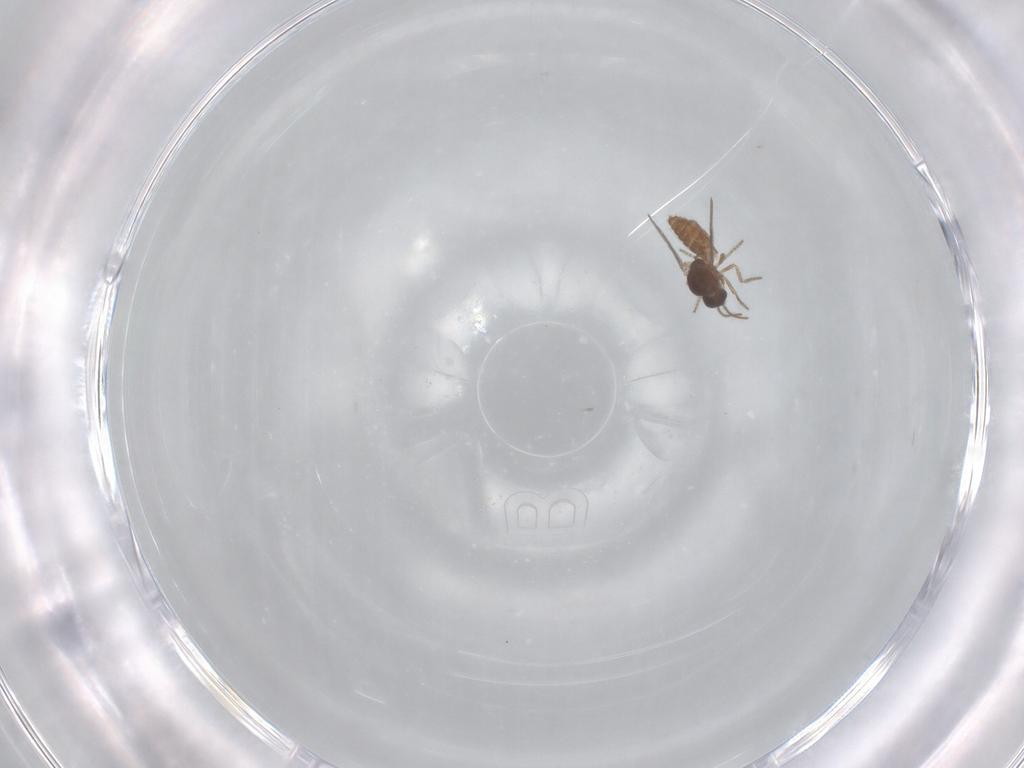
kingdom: Animalia
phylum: Arthropoda
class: Insecta
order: Diptera
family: Ceratopogonidae
